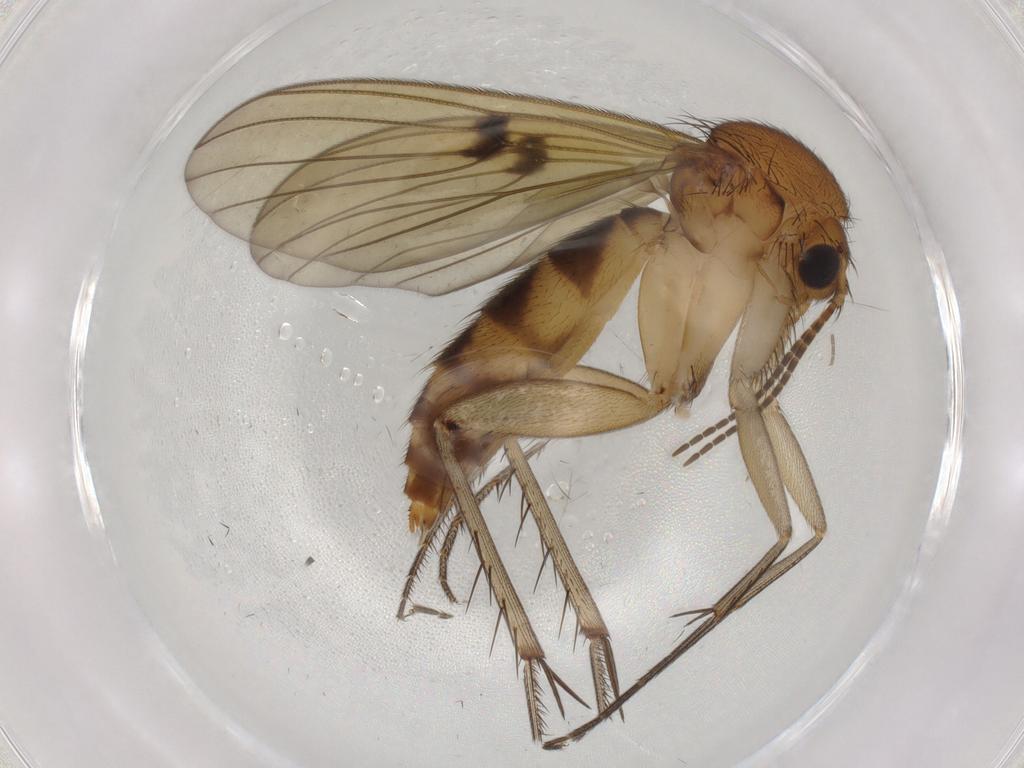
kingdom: Animalia
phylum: Arthropoda
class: Insecta
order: Diptera
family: Mycetophilidae
